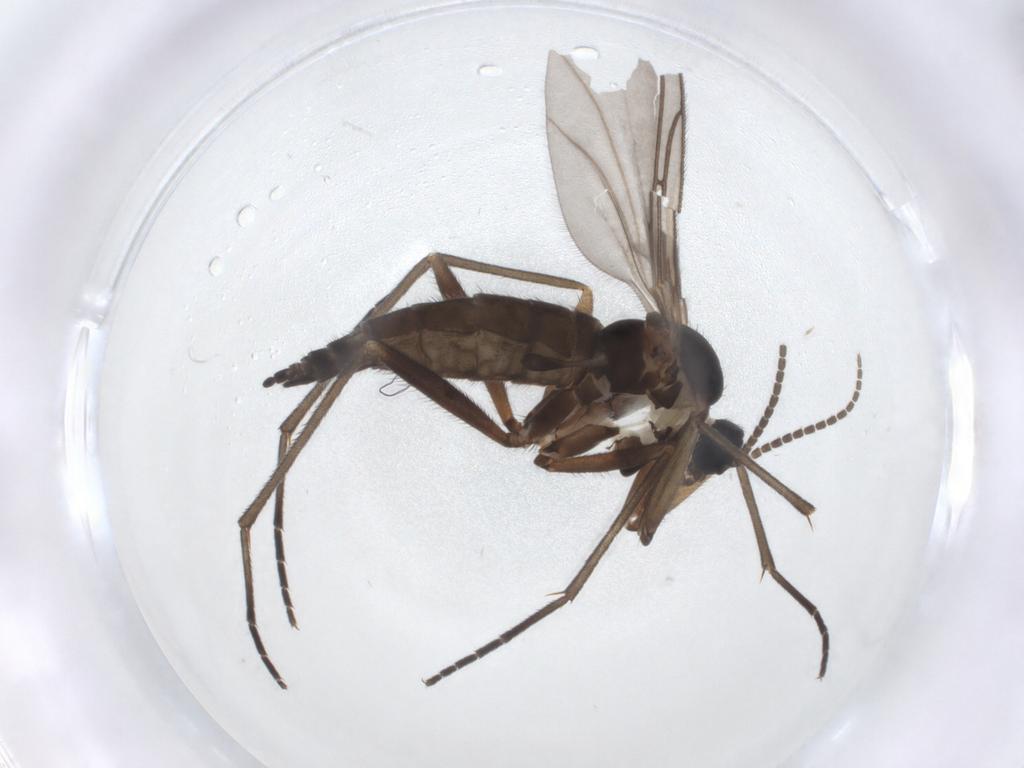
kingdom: Animalia
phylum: Arthropoda
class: Insecta
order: Diptera
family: Sciaridae
